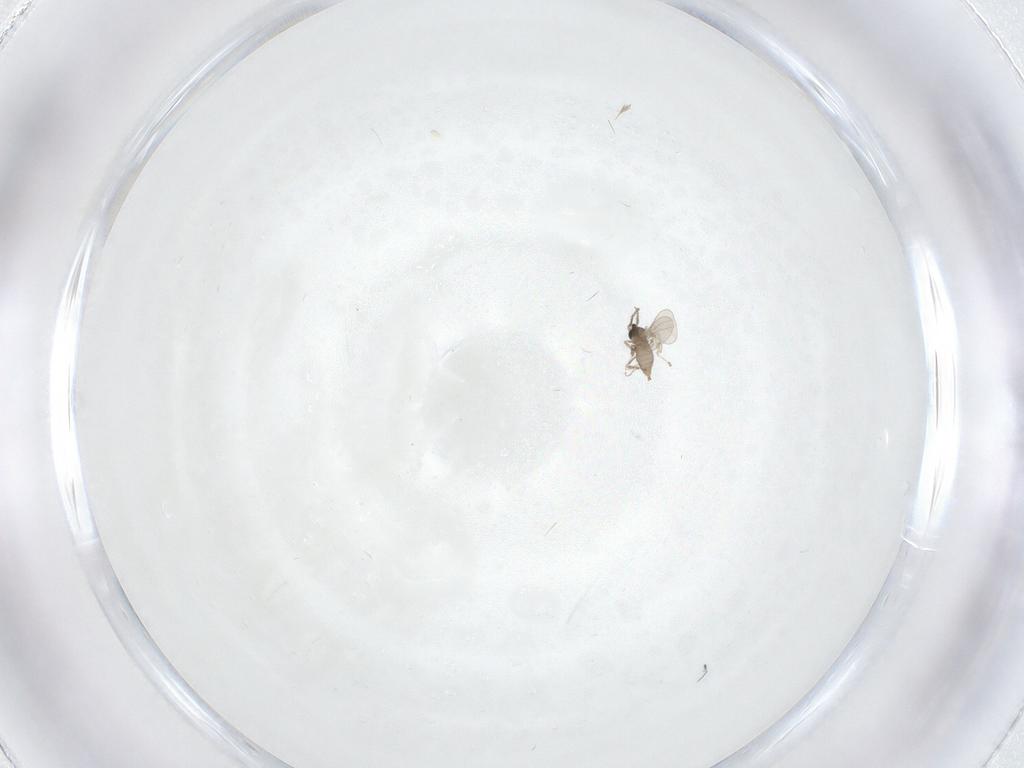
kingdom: Animalia
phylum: Arthropoda
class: Insecta
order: Diptera
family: Cecidomyiidae
